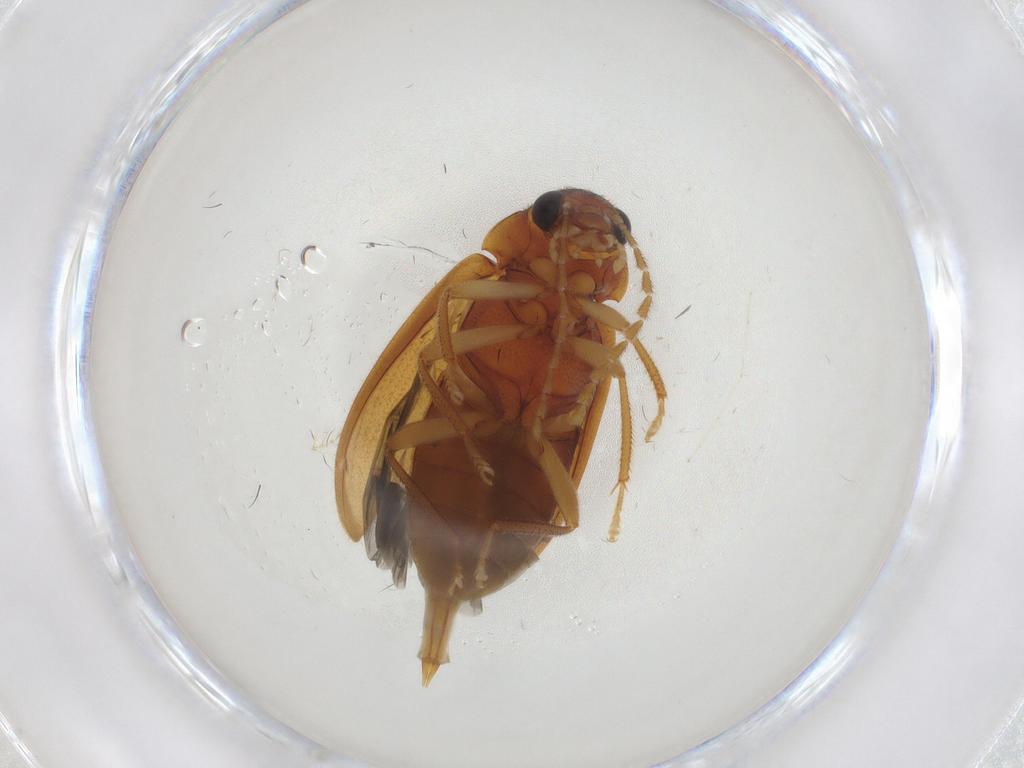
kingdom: Animalia
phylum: Arthropoda
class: Insecta
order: Coleoptera
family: Ptilodactylidae
